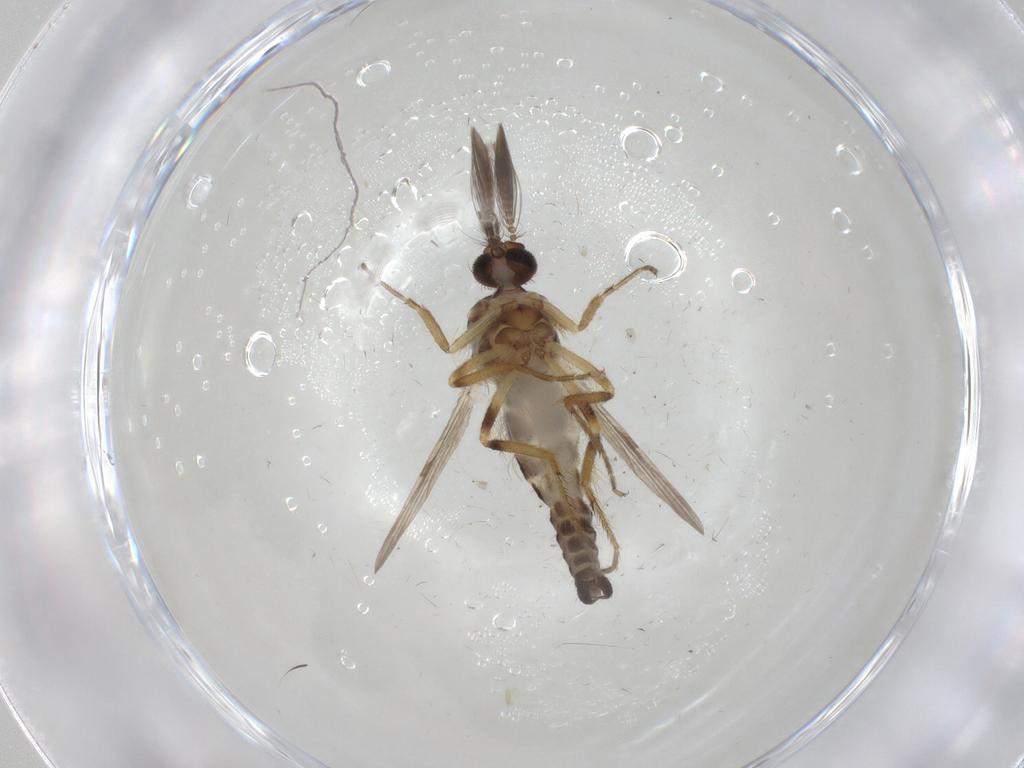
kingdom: Animalia
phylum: Arthropoda
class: Insecta
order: Diptera
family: Ceratopogonidae
